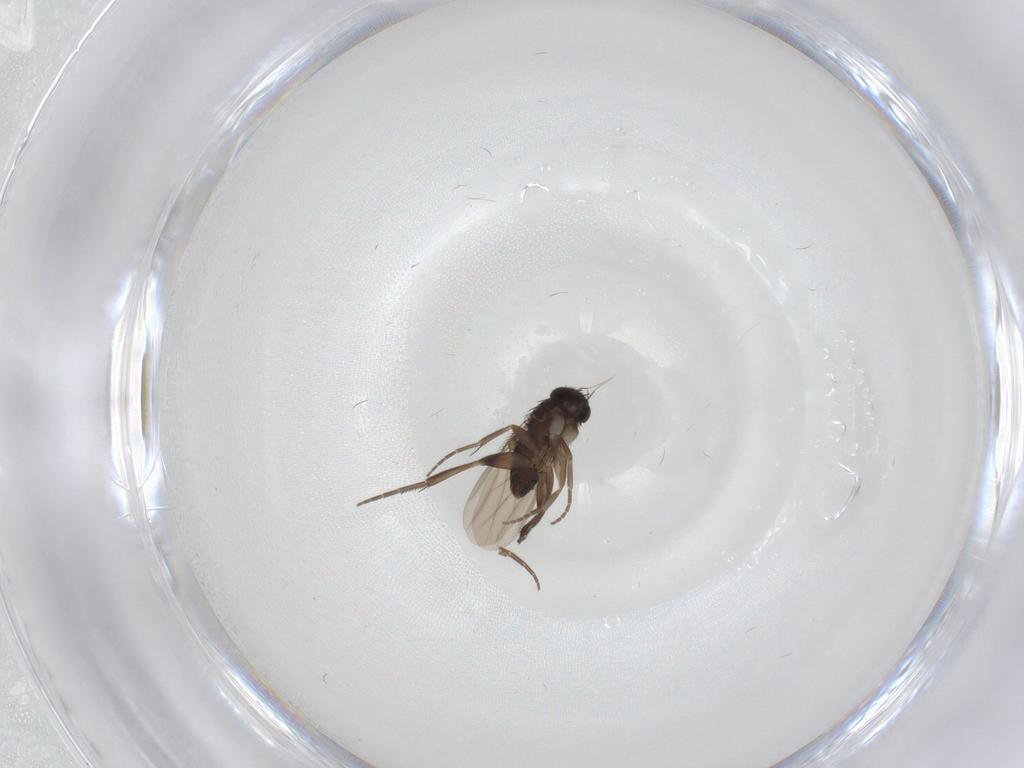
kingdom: Animalia
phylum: Arthropoda
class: Insecta
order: Diptera
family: Phoridae
